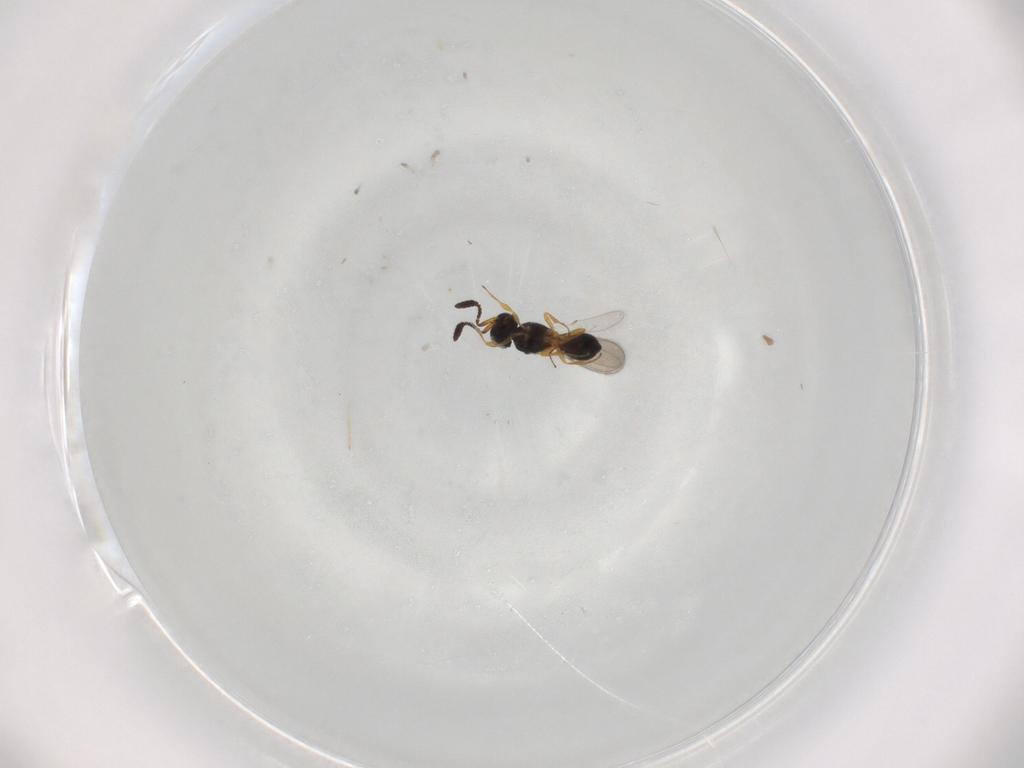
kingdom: Animalia
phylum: Arthropoda
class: Insecta
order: Hymenoptera
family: Scelionidae
